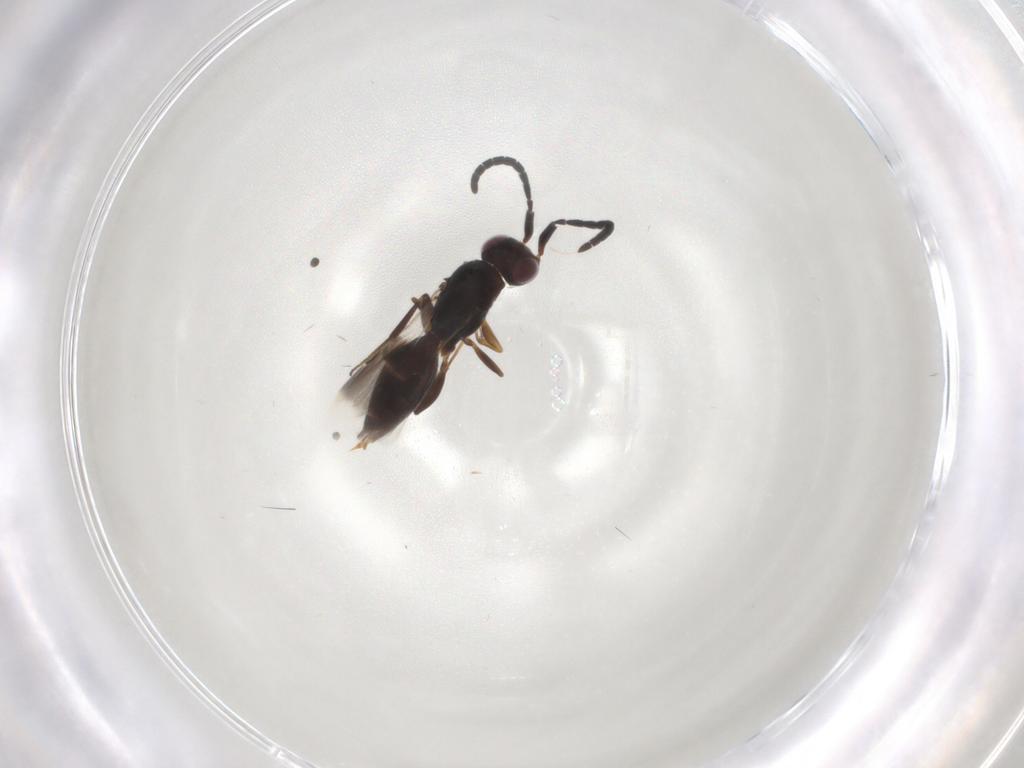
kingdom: Animalia
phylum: Arthropoda
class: Insecta
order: Hymenoptera
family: Megaspilidae
